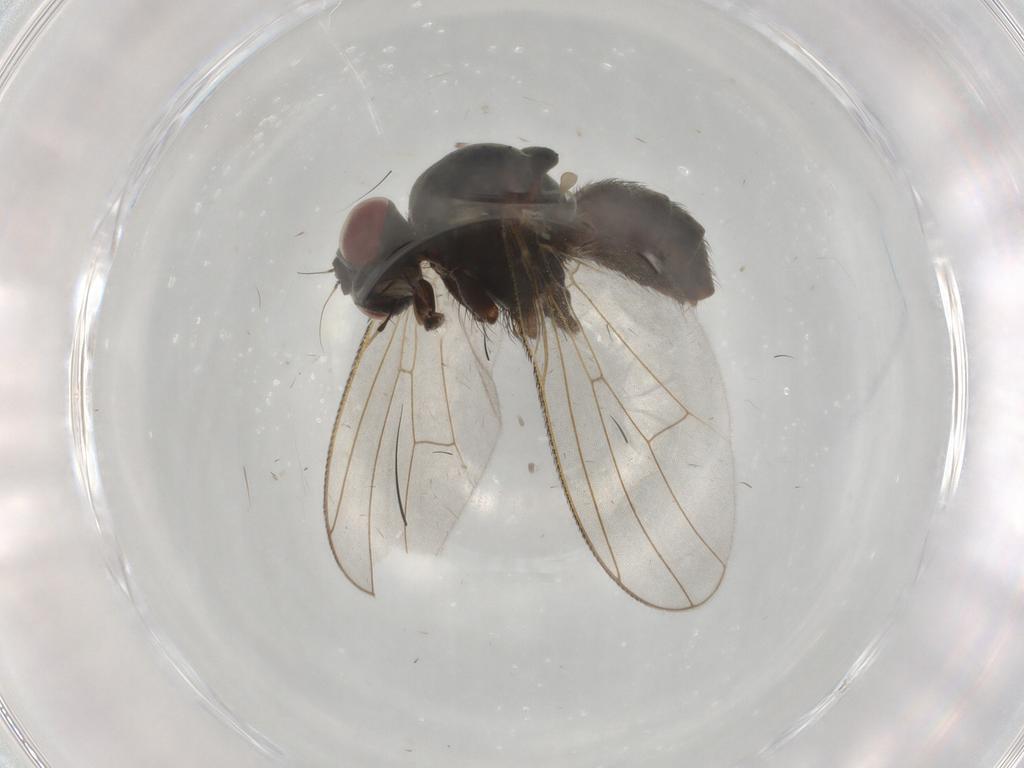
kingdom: Animalia
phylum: Arthropoda
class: Insecta
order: Diptera
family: Agromyzidae
